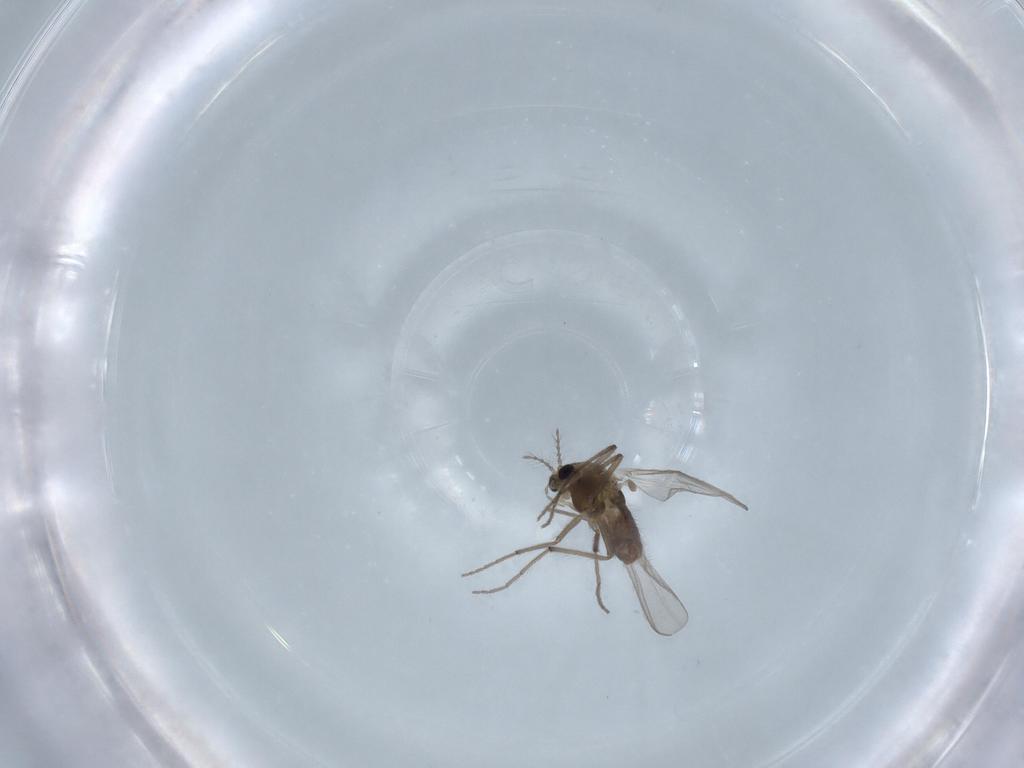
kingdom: Animalia
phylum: Arthropoda
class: Insecta
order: Diptera
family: Chironomidae
